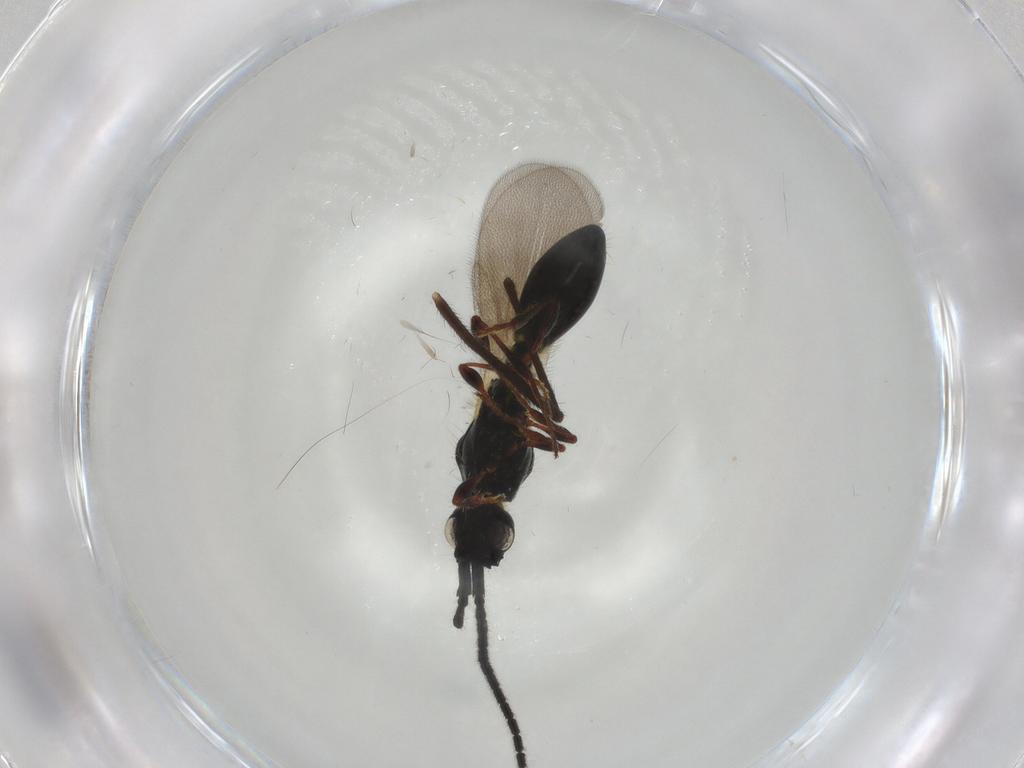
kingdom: Animalia
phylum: Arthropoda
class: Insecta
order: Hymenoptera
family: Diapriidae
